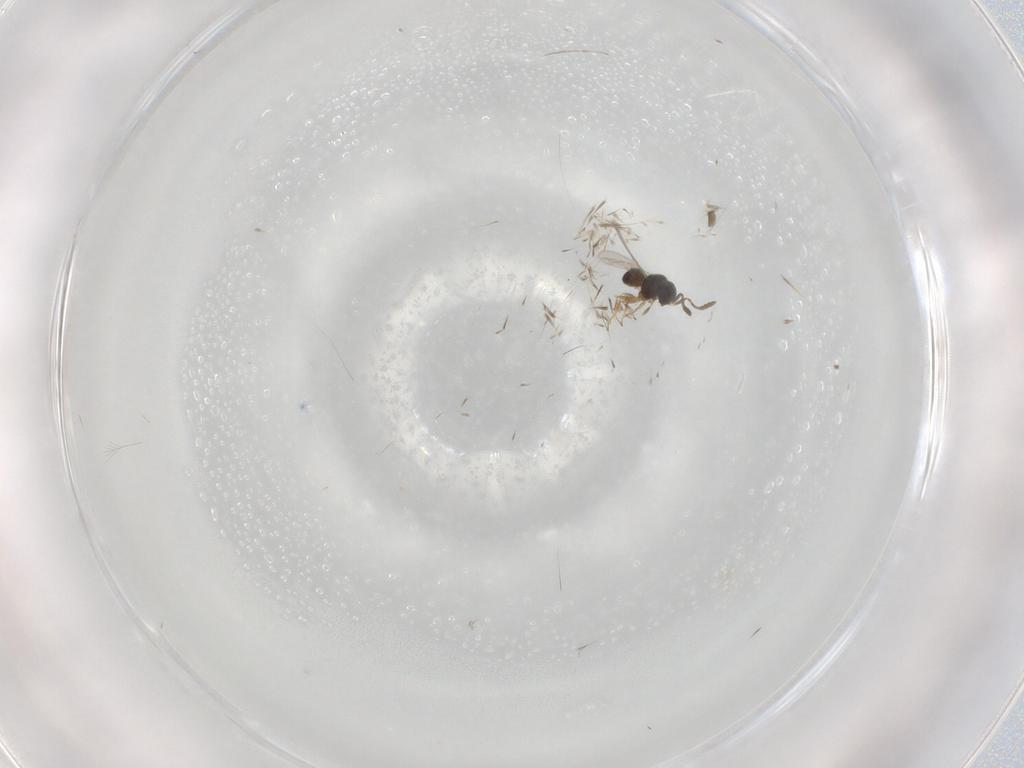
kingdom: Animalia
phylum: Arthropoda
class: Insecta
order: Hymenoptera
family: Scelionidae
